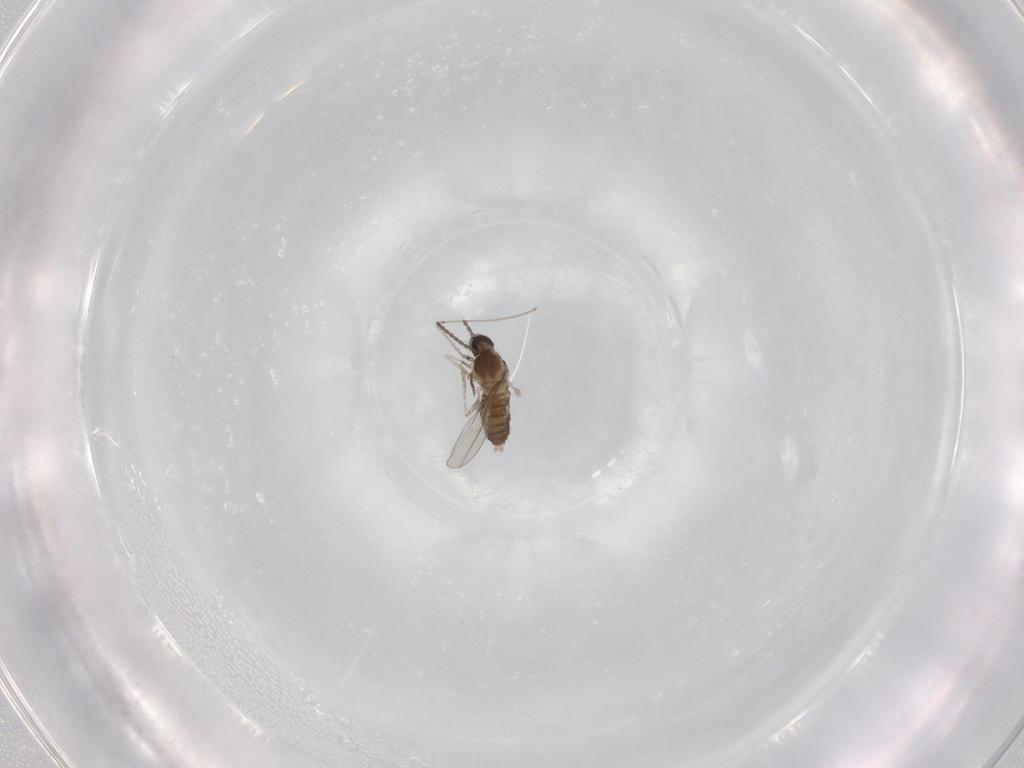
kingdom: Animalia
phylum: Arthropoda
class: Insecta
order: Diptera
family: Cecidomyiidae
